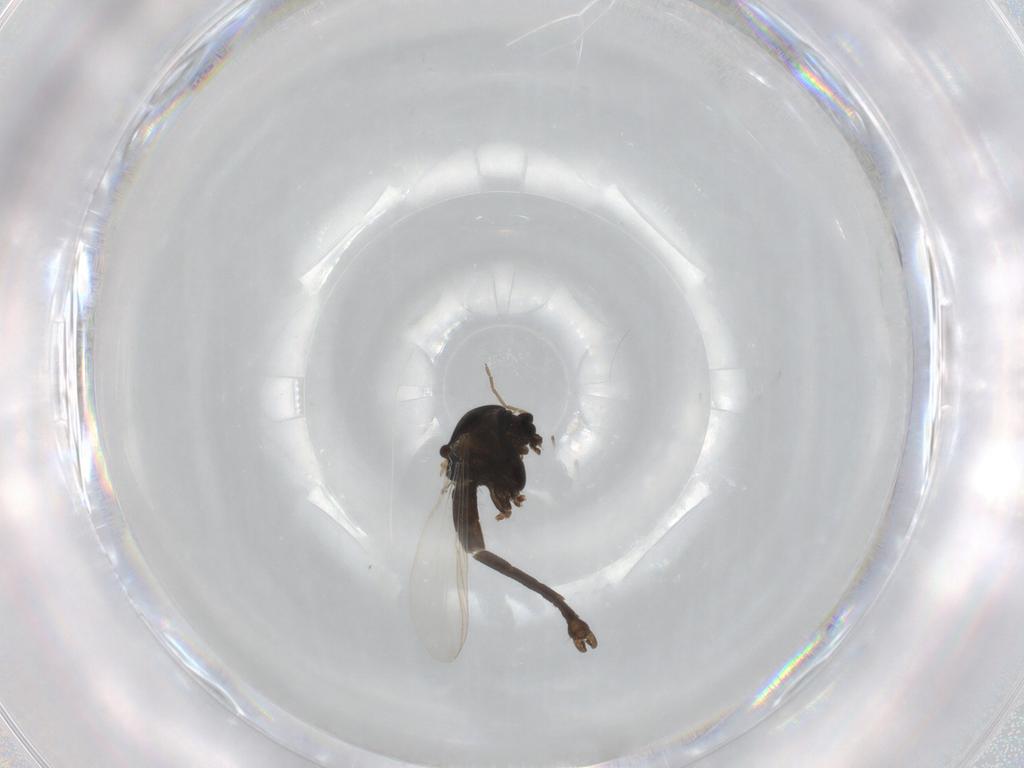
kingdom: Animalia
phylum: Arthropoda
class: Insecta
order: Diptera
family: Chironomidae
